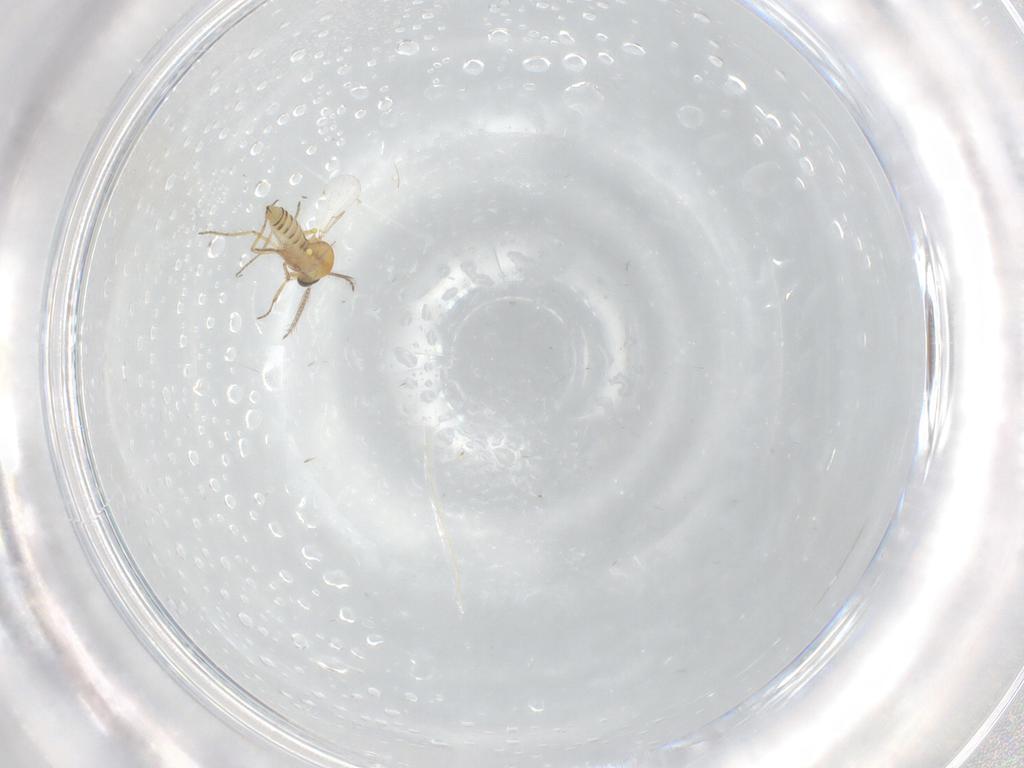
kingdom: Animalia
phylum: Arthropoda
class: Insecta
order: Diptera
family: Ceratopogonidae
